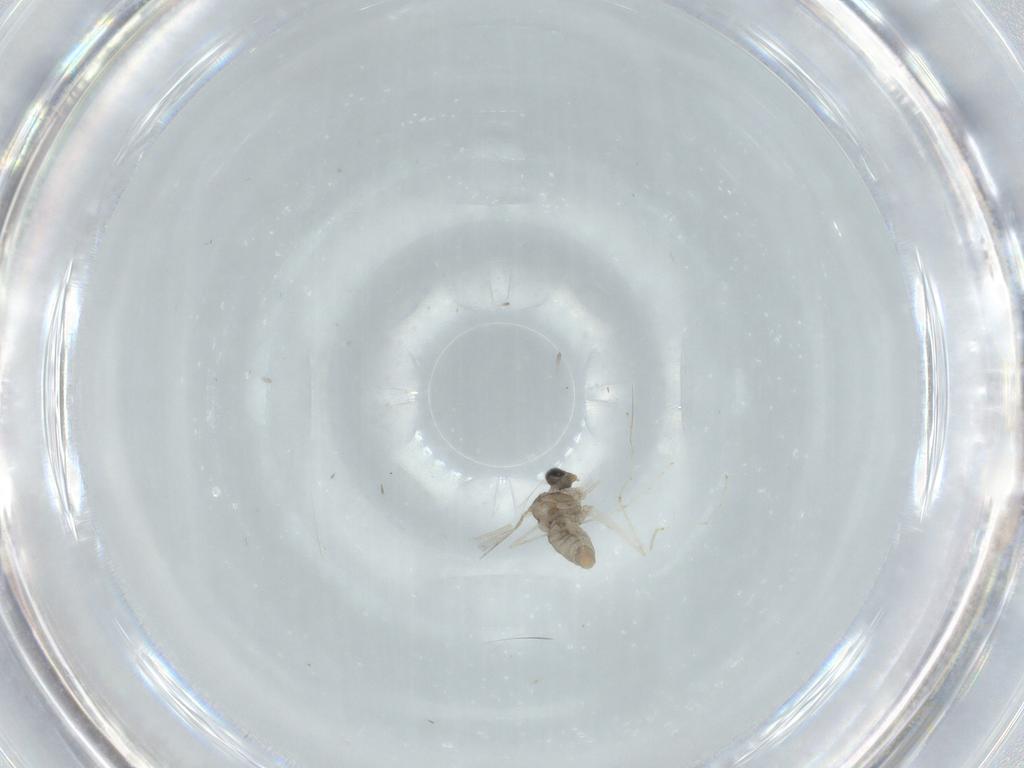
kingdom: Animalia
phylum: Arthropoda
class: Insecta
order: Diptera
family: Cecidomyiidae
